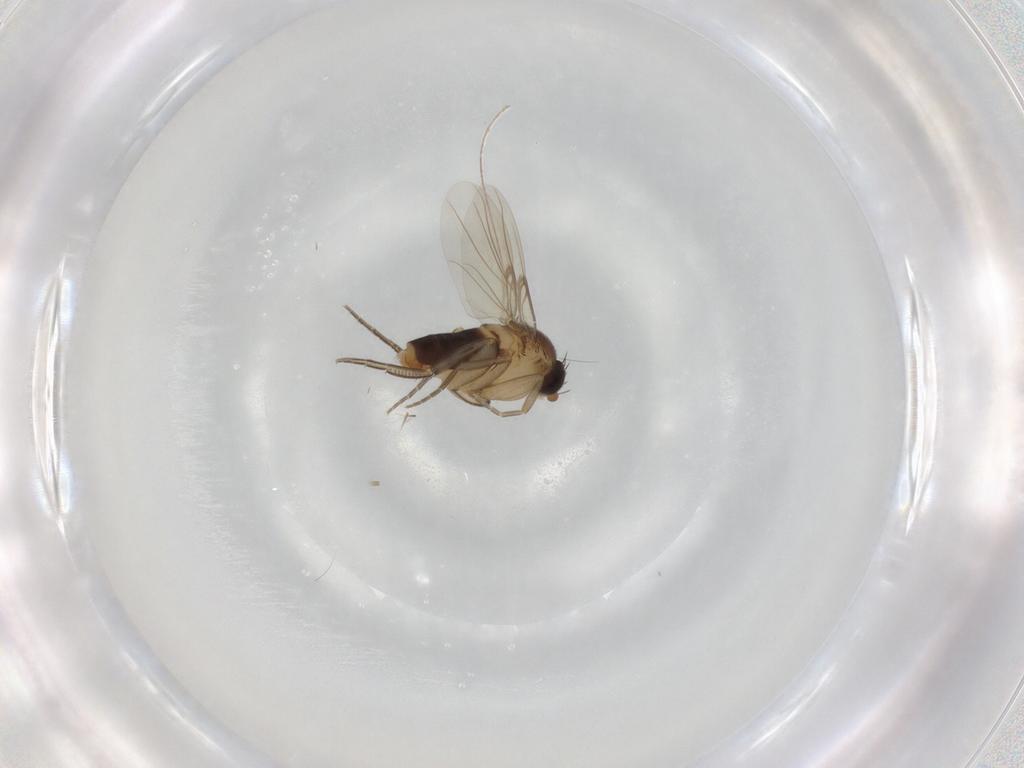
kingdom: Animalia
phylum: Arthropoda
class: Insecta
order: Diptera
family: Phoridae
